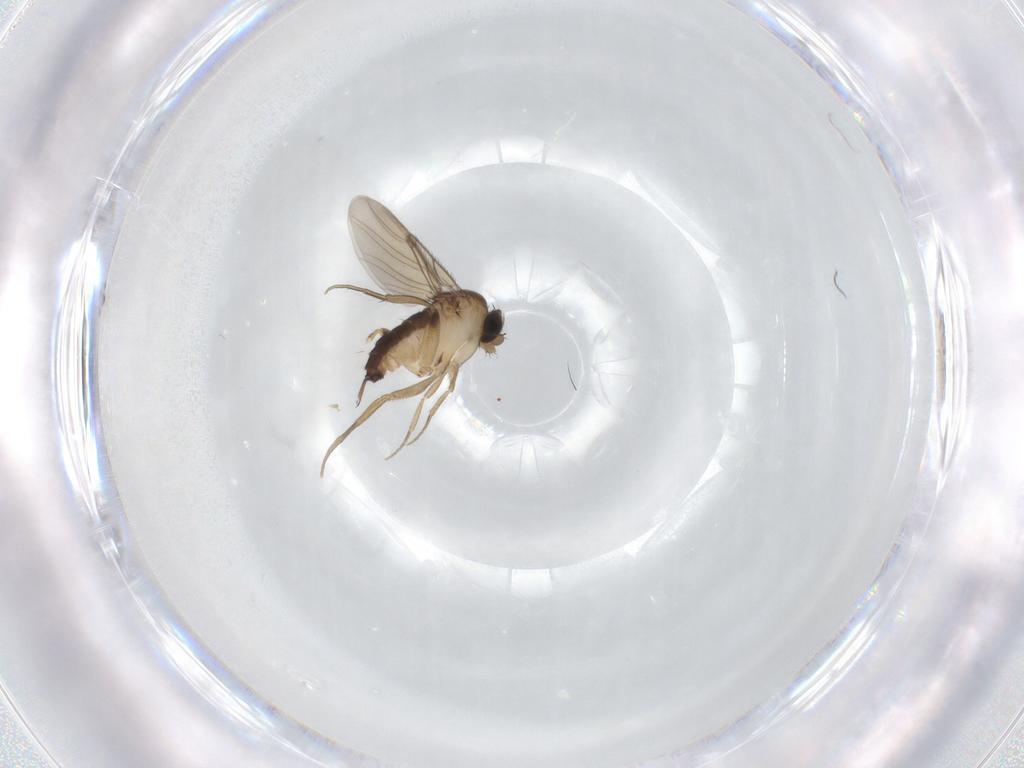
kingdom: Animalia
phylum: Arthropoda
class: Insecta
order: Diptera
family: Phoridae
